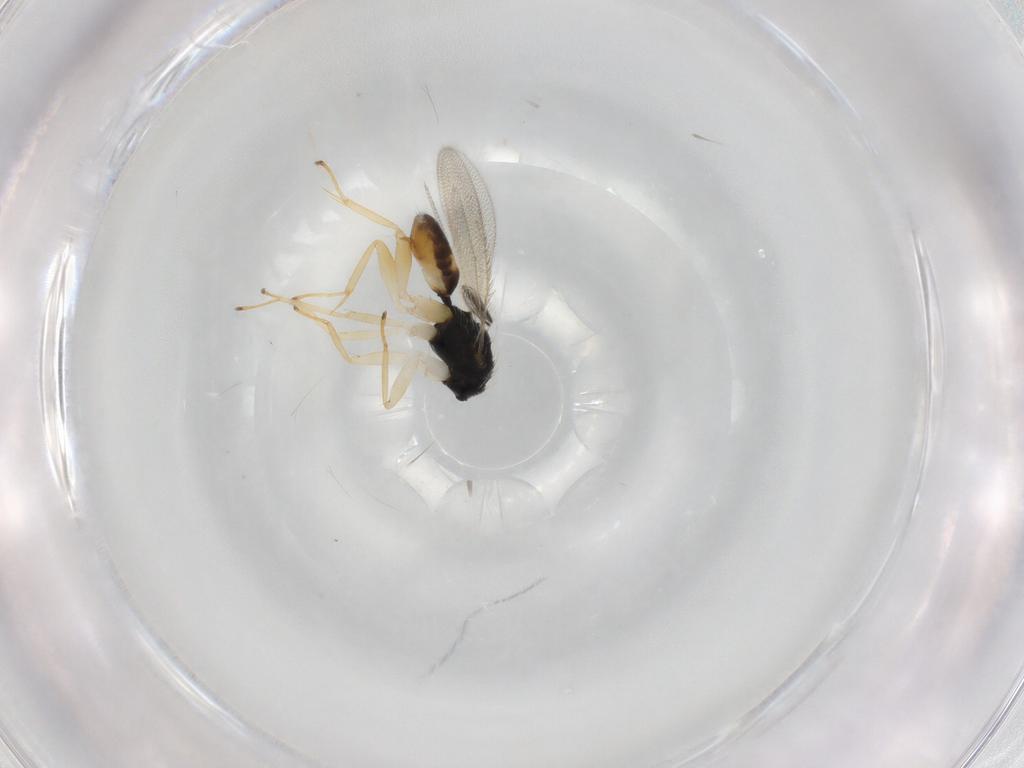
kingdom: Animalia
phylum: Arthropoda
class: Insecta
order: Hymenoptera
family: Eulophidae
